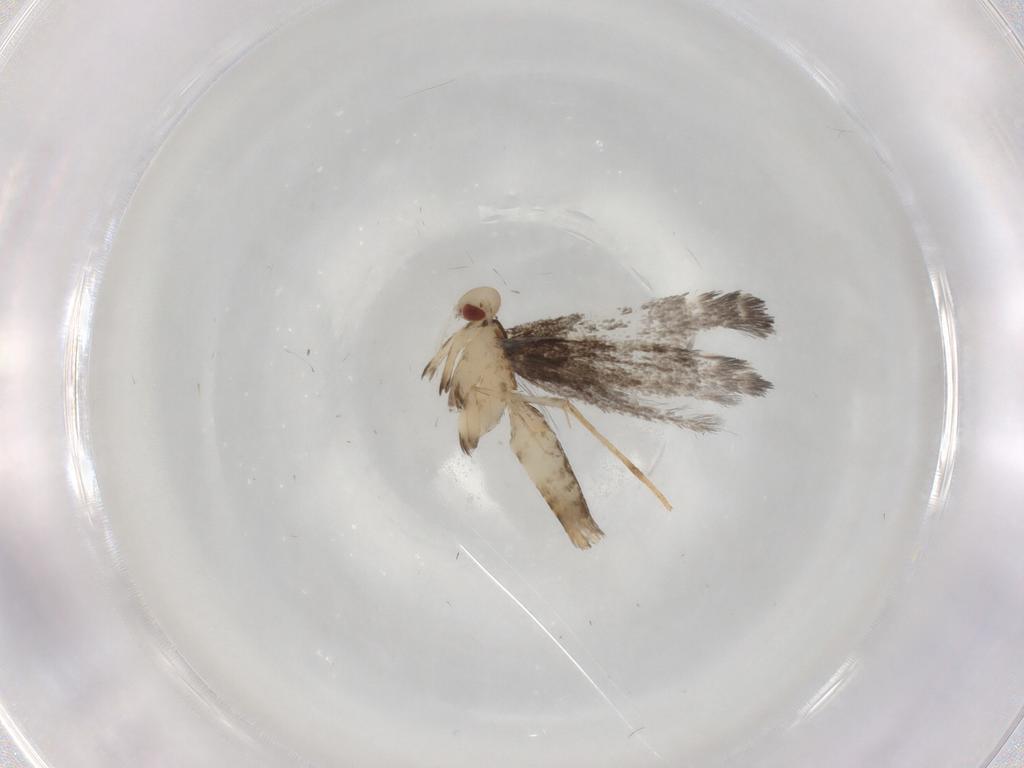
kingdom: Animalia
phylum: Arthropoda
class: Insecta
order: Lepidoptera
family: Gracillariidae
